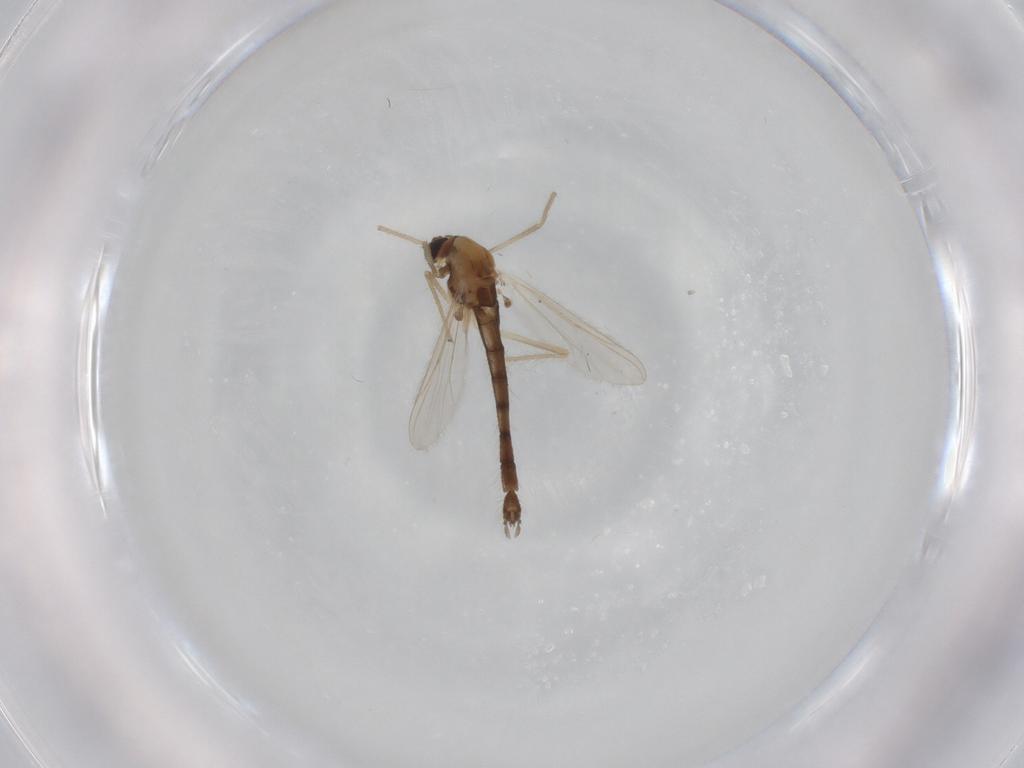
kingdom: Animalia
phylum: Arthropoda
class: Insecta
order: Diptera
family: Chironomidae
